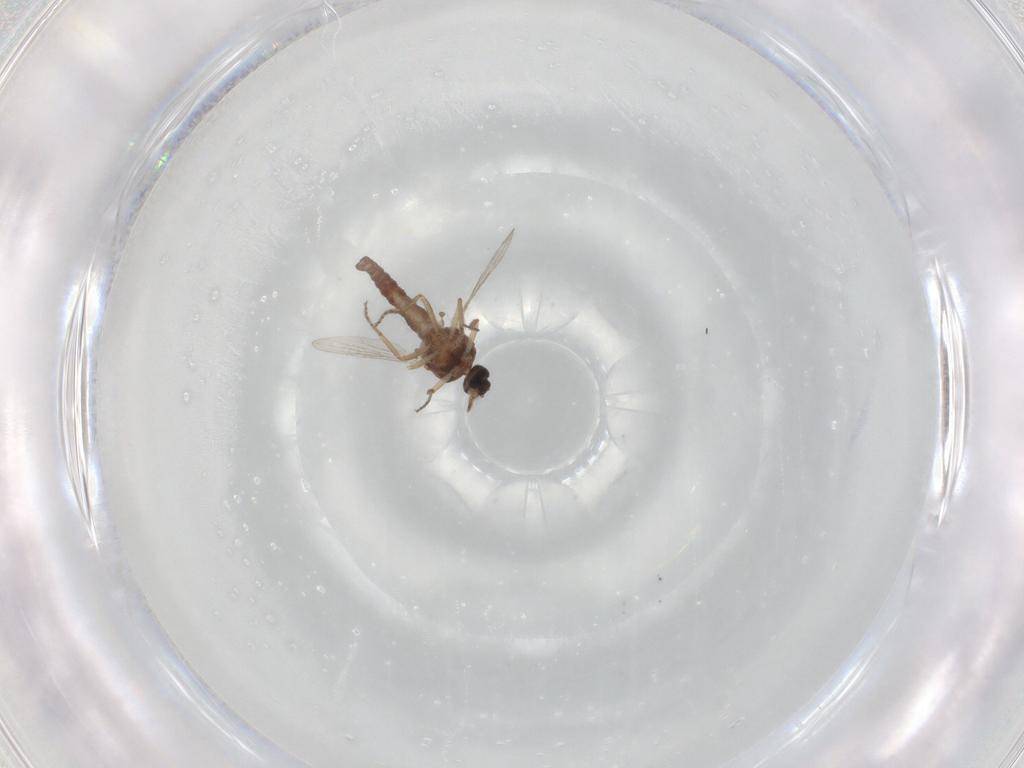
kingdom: Animalia
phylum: Arthropoda
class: Insecta
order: Diptera
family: Ceratopogonidae
